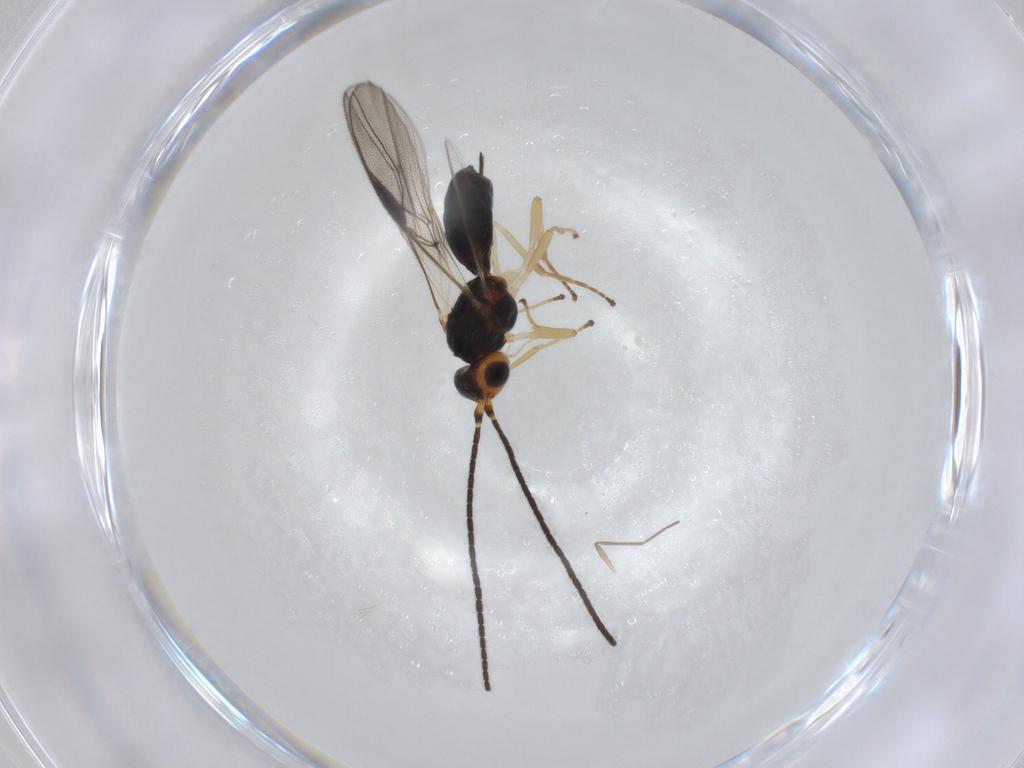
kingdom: Animalia
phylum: Arthropoda
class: Insecta
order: Hymenoptera
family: Braconidae
